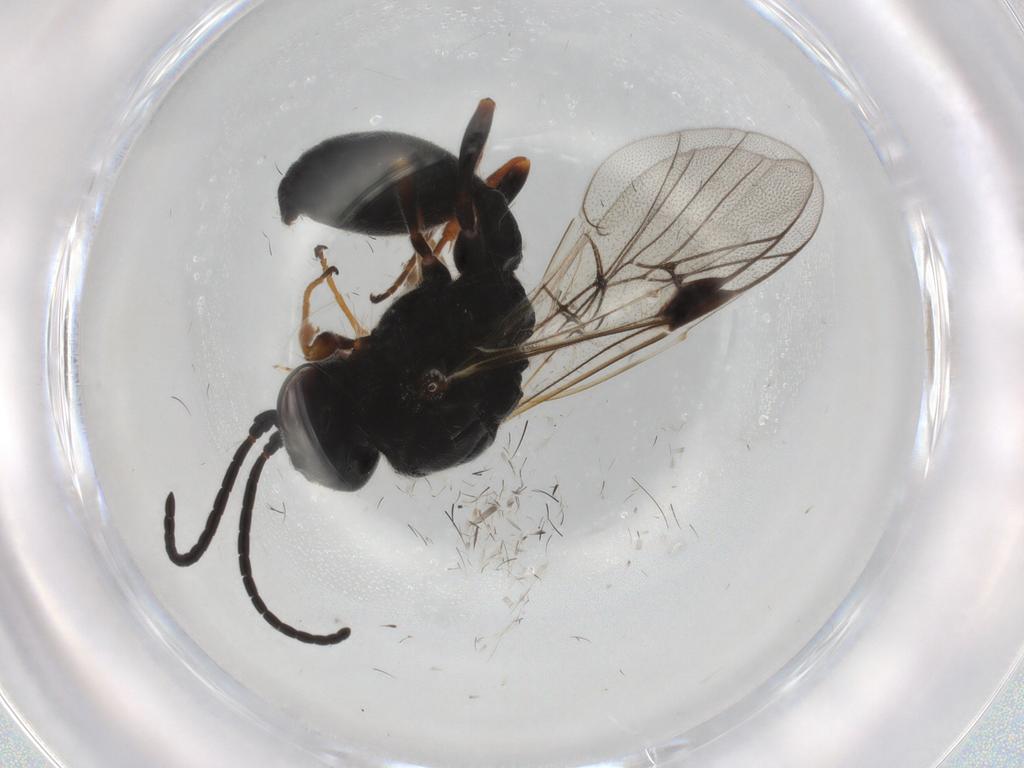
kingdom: Animalia
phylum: Arthropoda
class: Insecta
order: Hymenoptera
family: Heloridae
